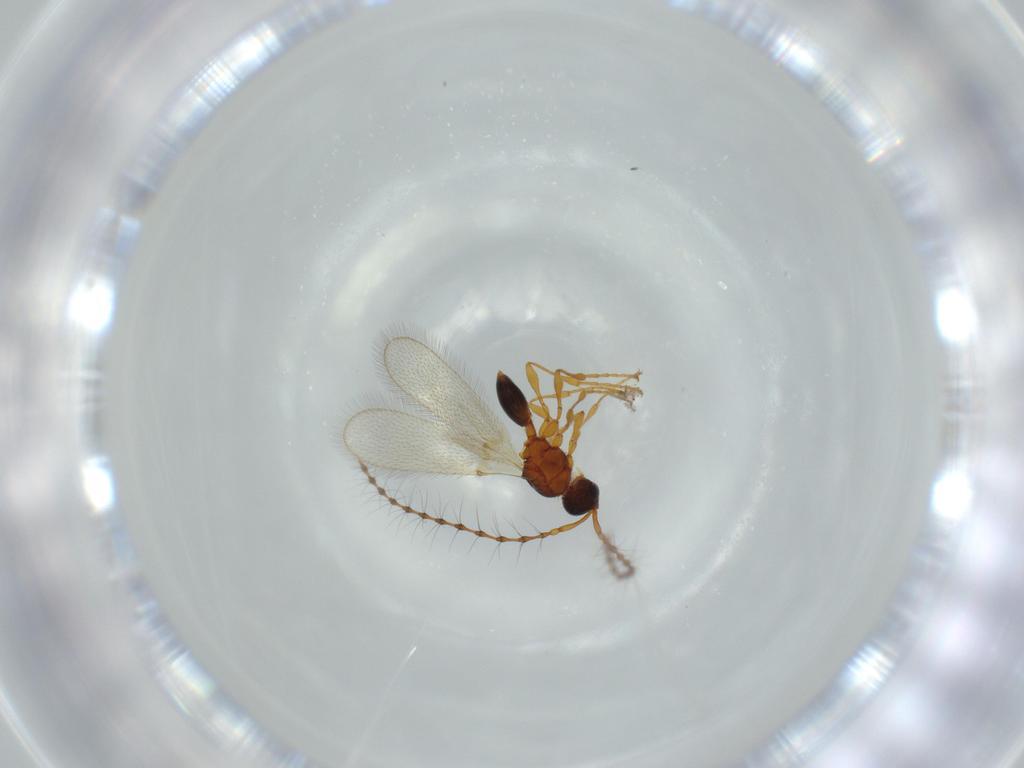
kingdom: Animalia
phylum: Arthropoda
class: Insecta
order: Hymenoptera
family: Diapriidae
